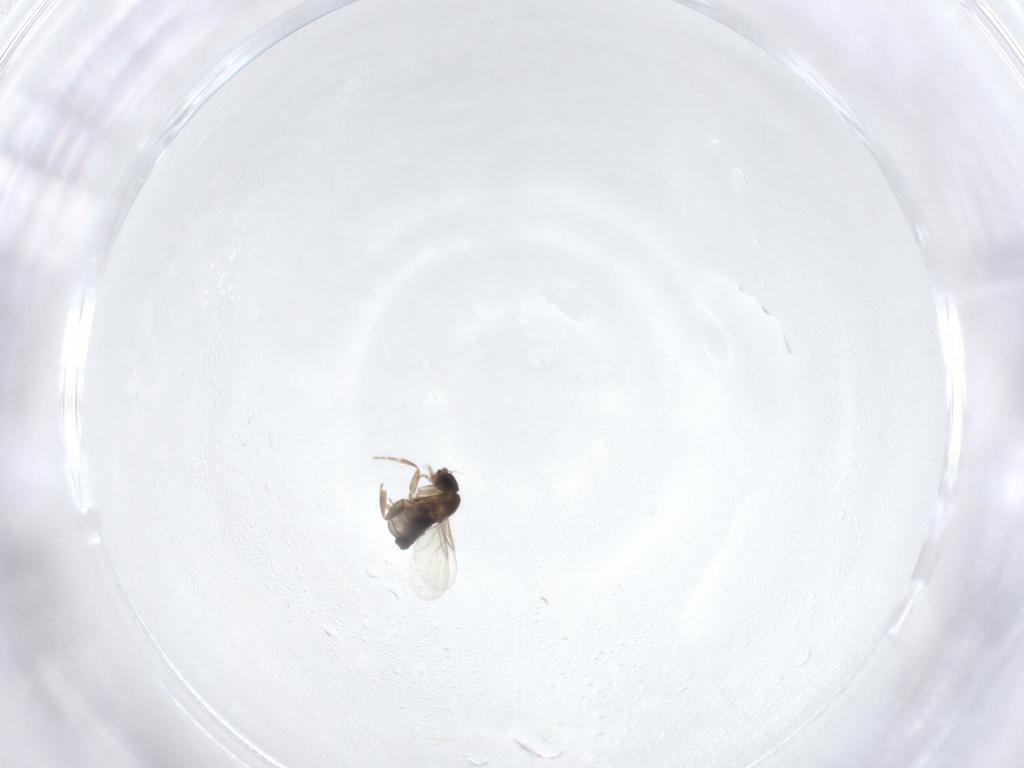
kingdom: Animalia
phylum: Arthropoda
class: Insecta
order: Diptera
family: Phoridae
